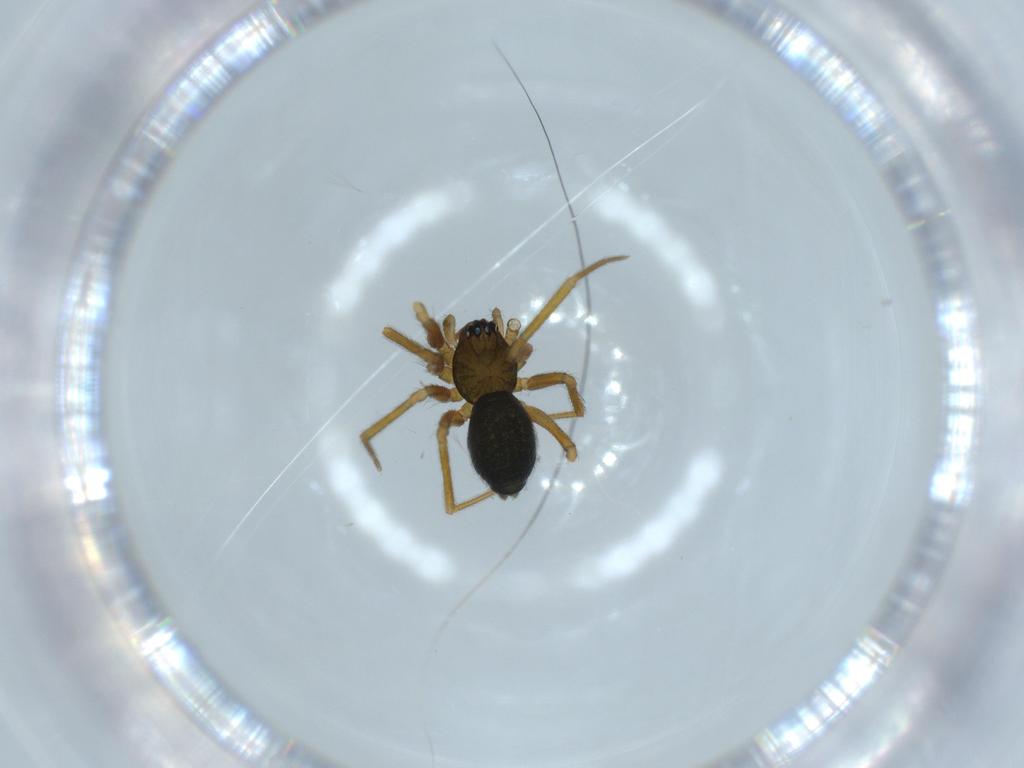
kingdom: Animalia
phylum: Arthropoda
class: Arachnida
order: Araneae
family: Linyphiidae
